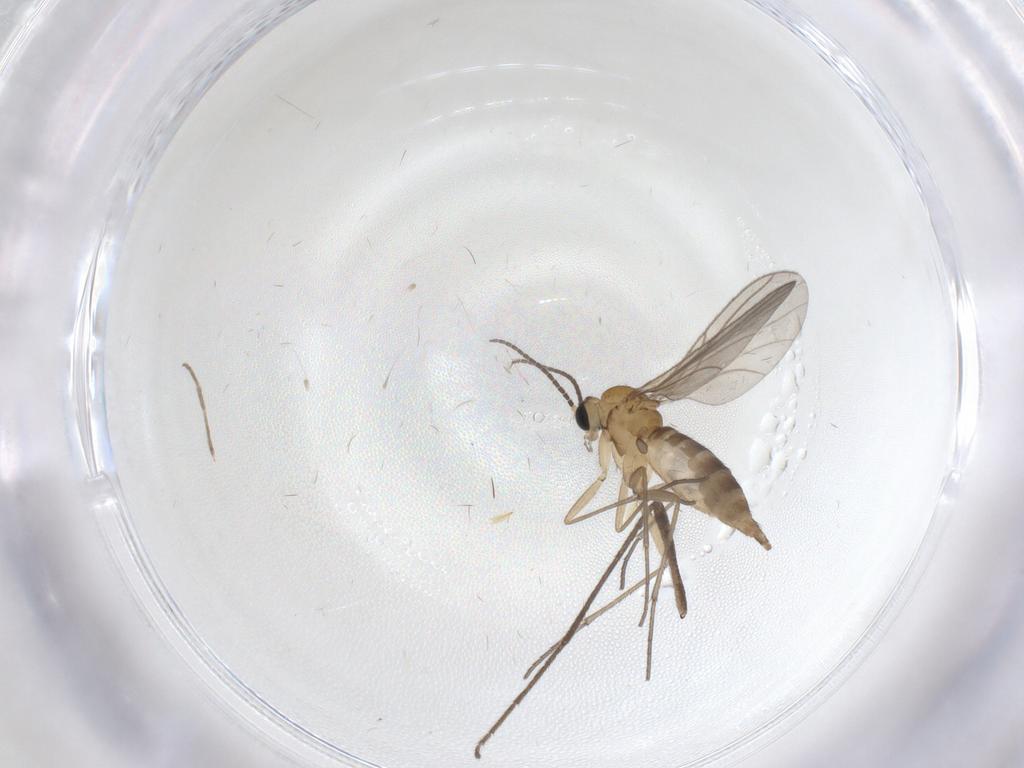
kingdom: Animalia
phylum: Arthropoda
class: Insecta
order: Diptera
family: Sciaridae
